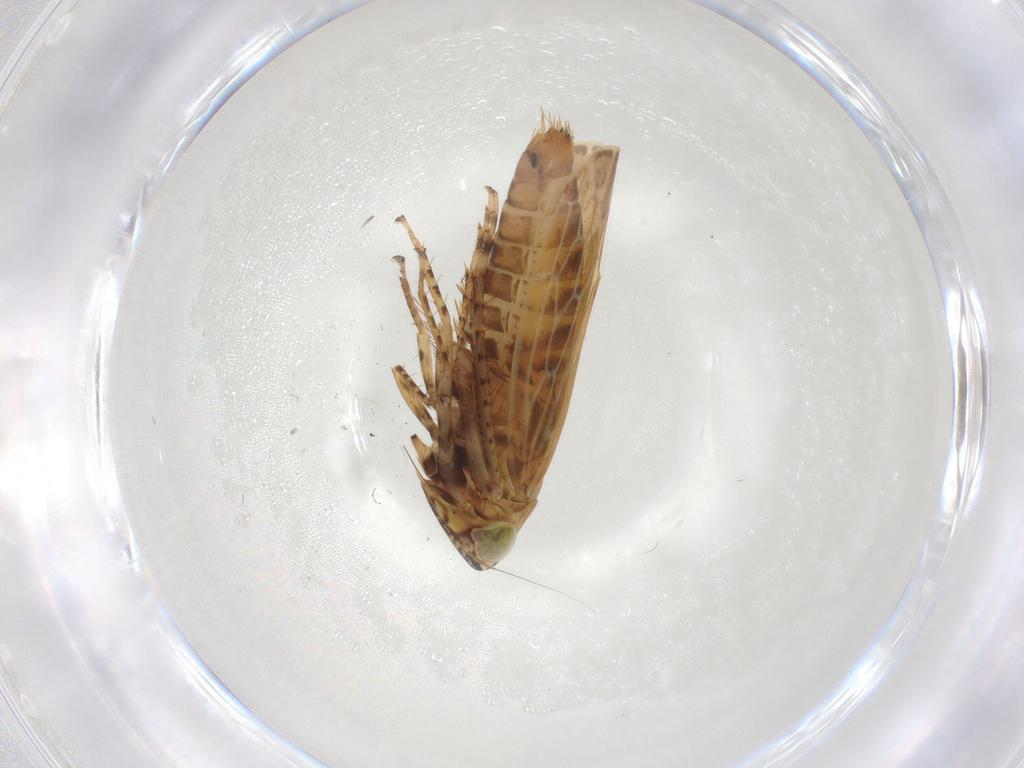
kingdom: Animalia
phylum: Arthropoda
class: Insecta
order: Hemiptera
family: Cicadellidae
